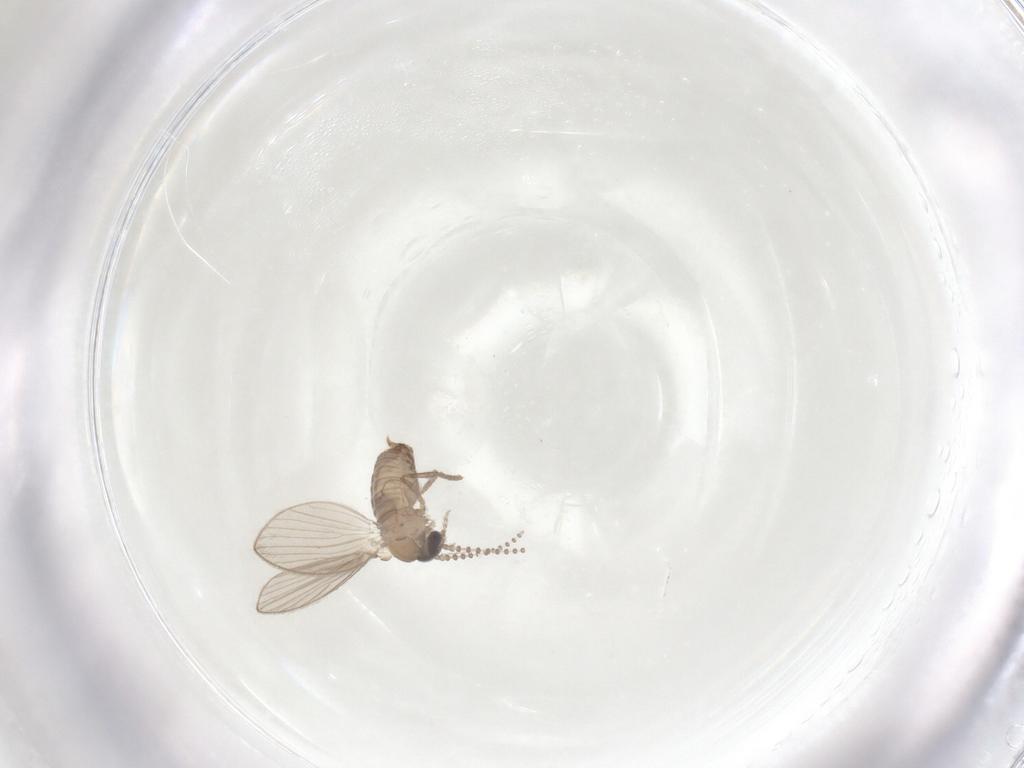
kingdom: Animalia
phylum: Arthropoda
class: Insecta
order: Diptera
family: Psychodidae
